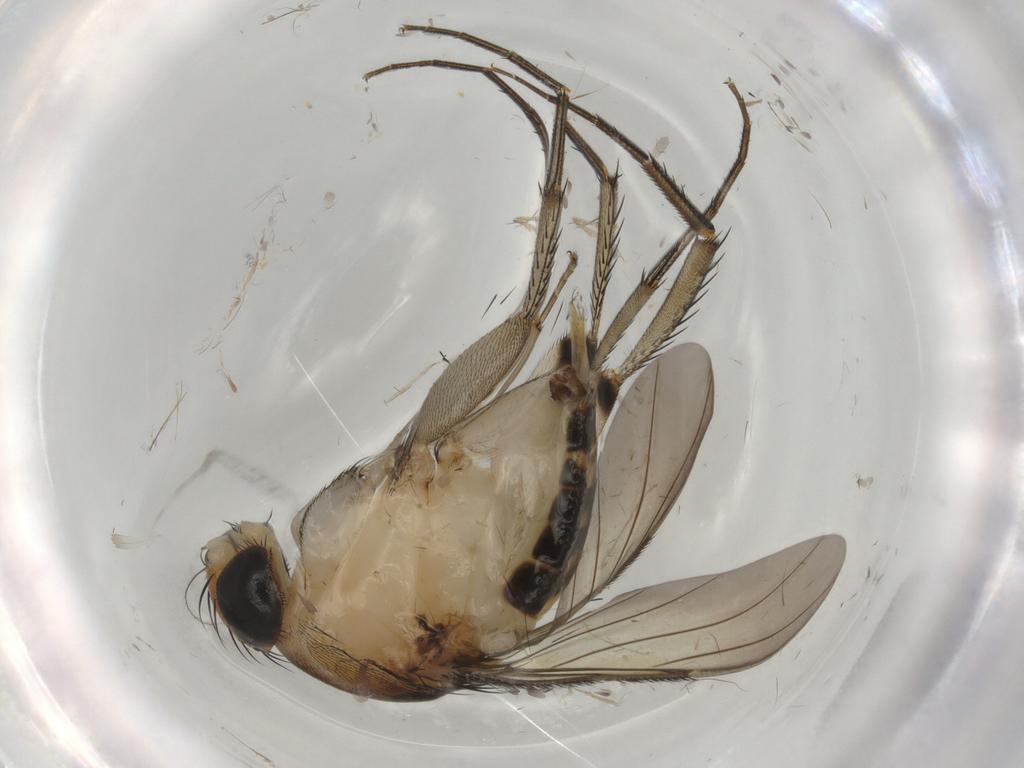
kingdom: Animalia
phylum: Arthropoda
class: Insecta
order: Diptera
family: Phoridae
